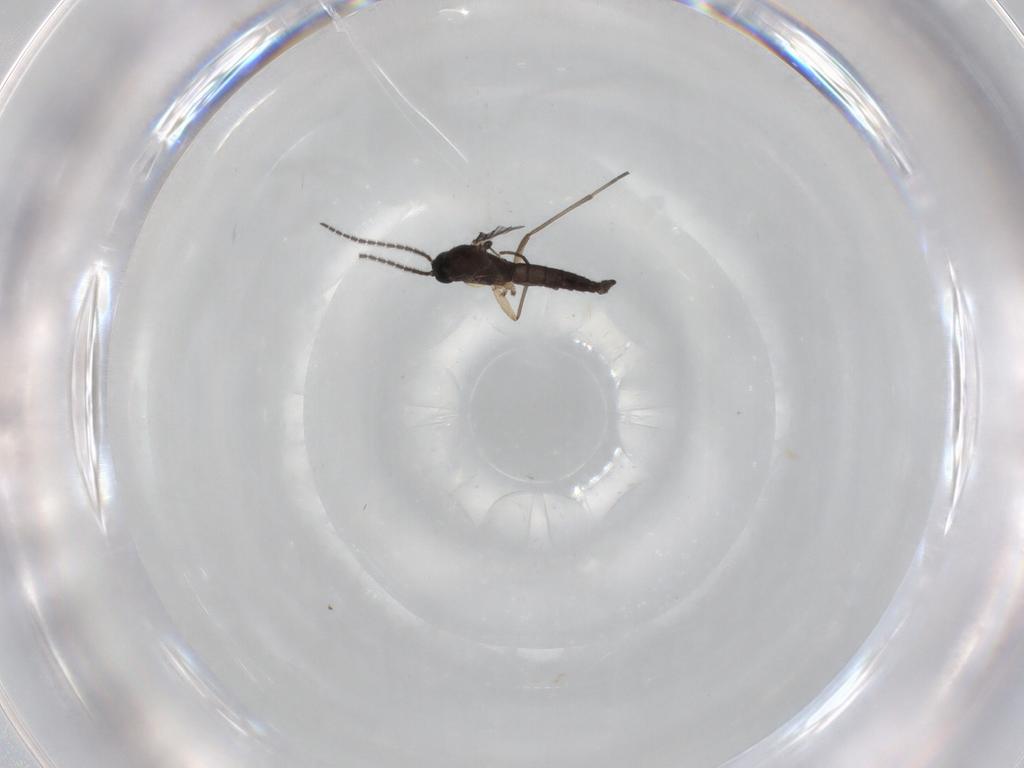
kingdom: Animalia
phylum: Arthropoda
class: Insecta
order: Diptera
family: Sciaridae
